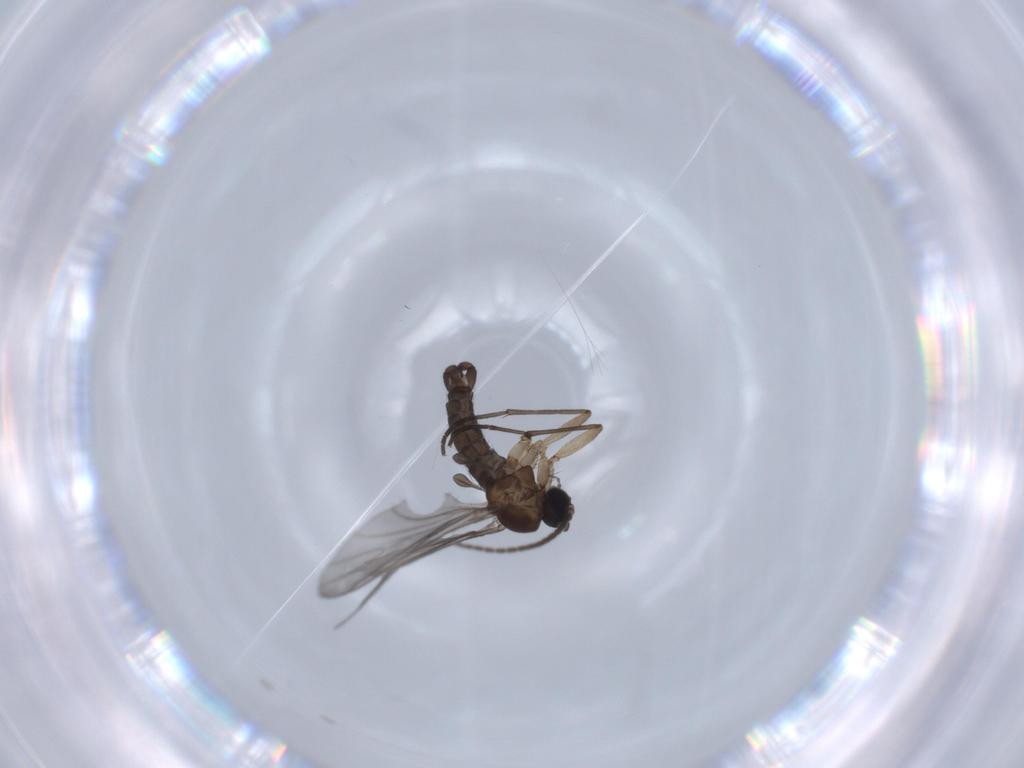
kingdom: Animalia
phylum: Arthropoda
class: Insecta
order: Diptera
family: Sciaridae
